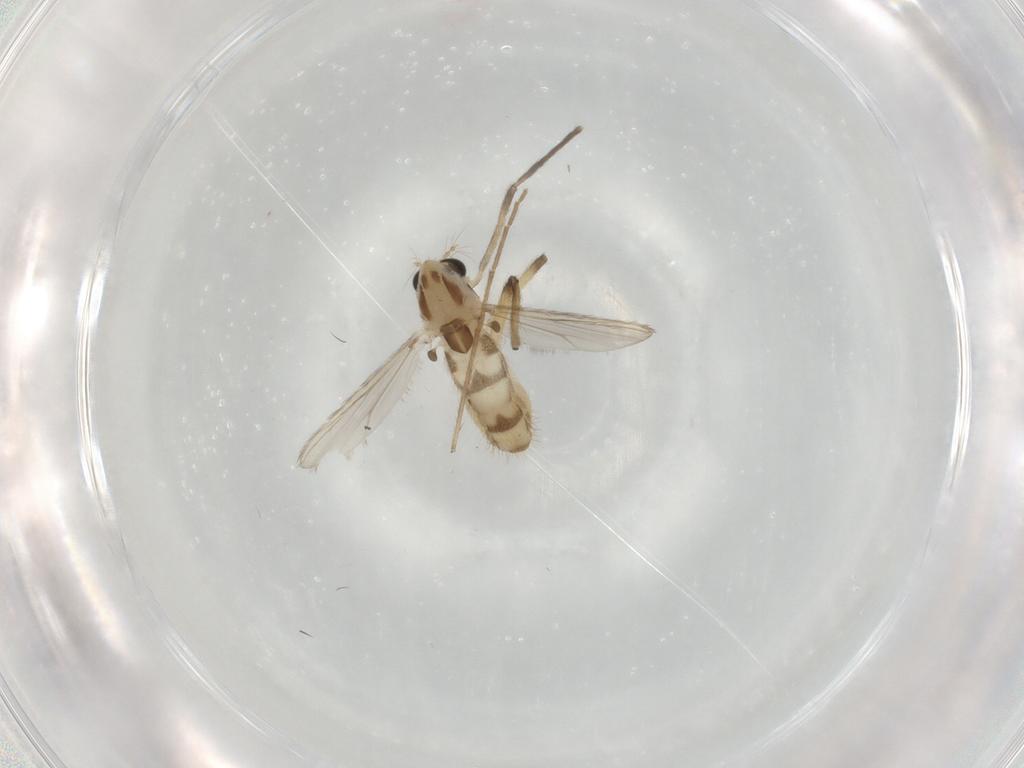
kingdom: Animalia
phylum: Arthropoda
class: Insecta
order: Diptera
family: Chironomidae
